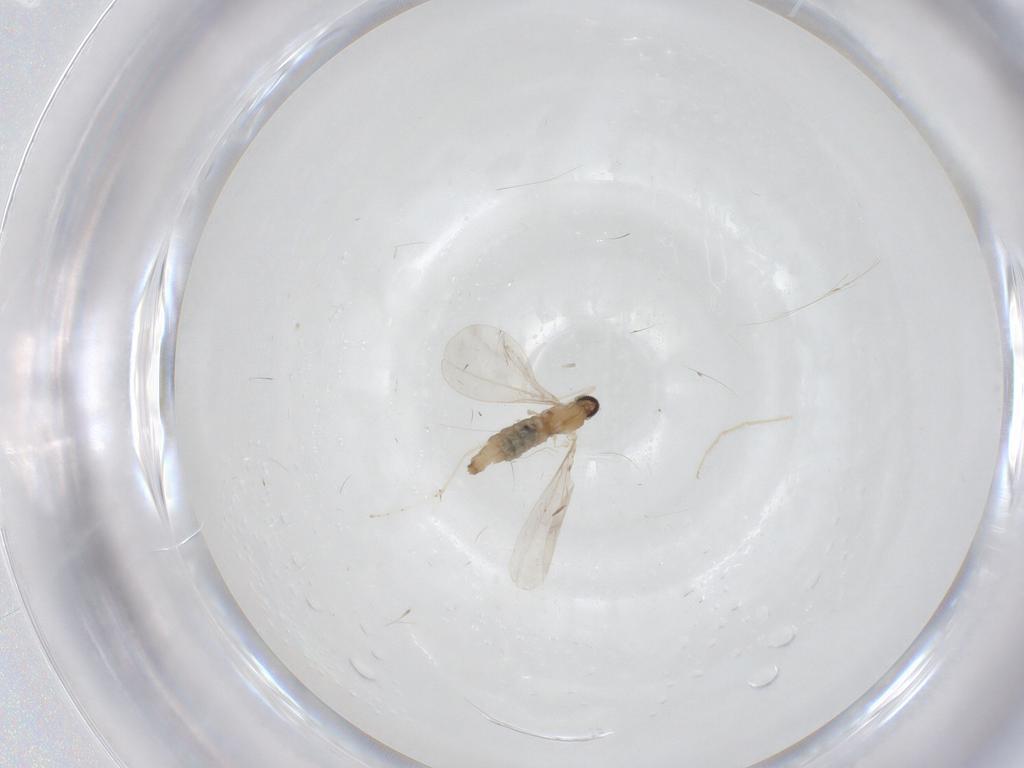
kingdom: Animalia
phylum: Arthropoda
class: Insecta
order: Diptera
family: Cecidomyiidae
